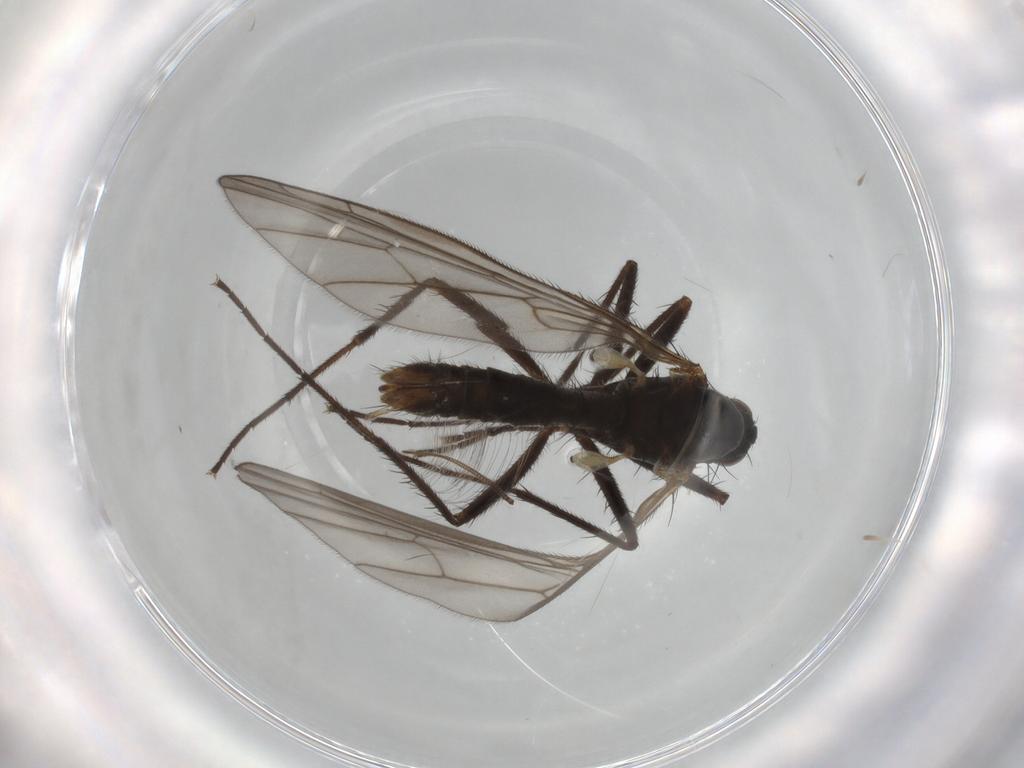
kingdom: Animalia
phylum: Arthropoda
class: Insecta
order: Diptera
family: Empididae
